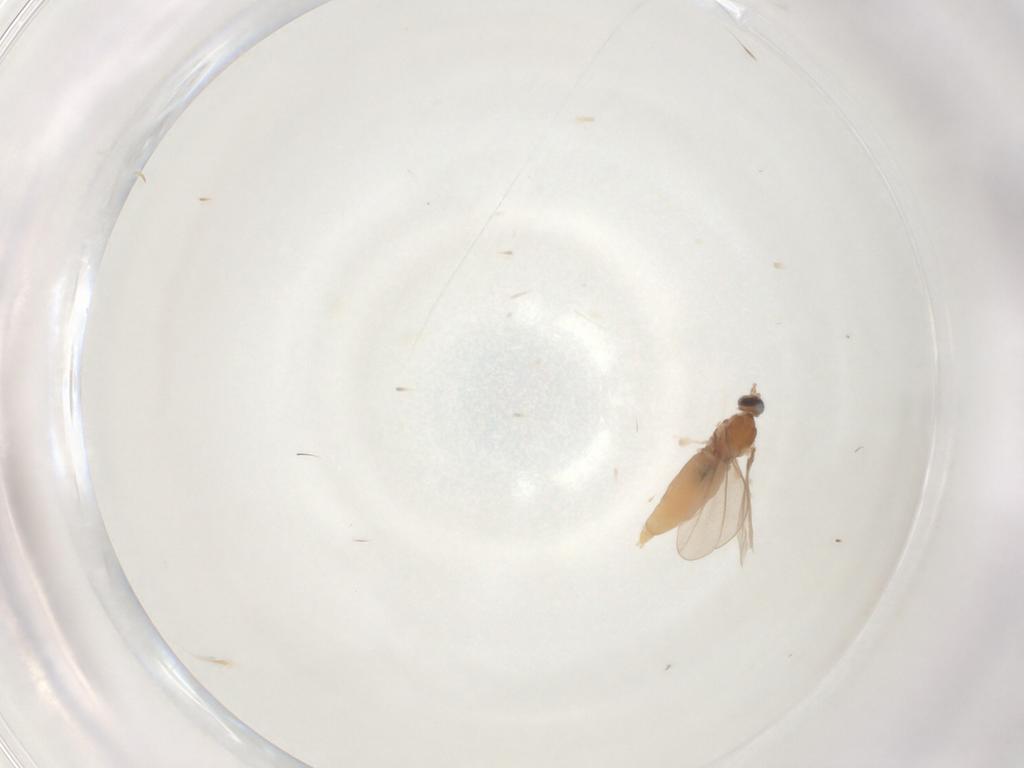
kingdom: Animalia
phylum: Arthropoda
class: Insecta
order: Diptera
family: Cecidomyiidae
